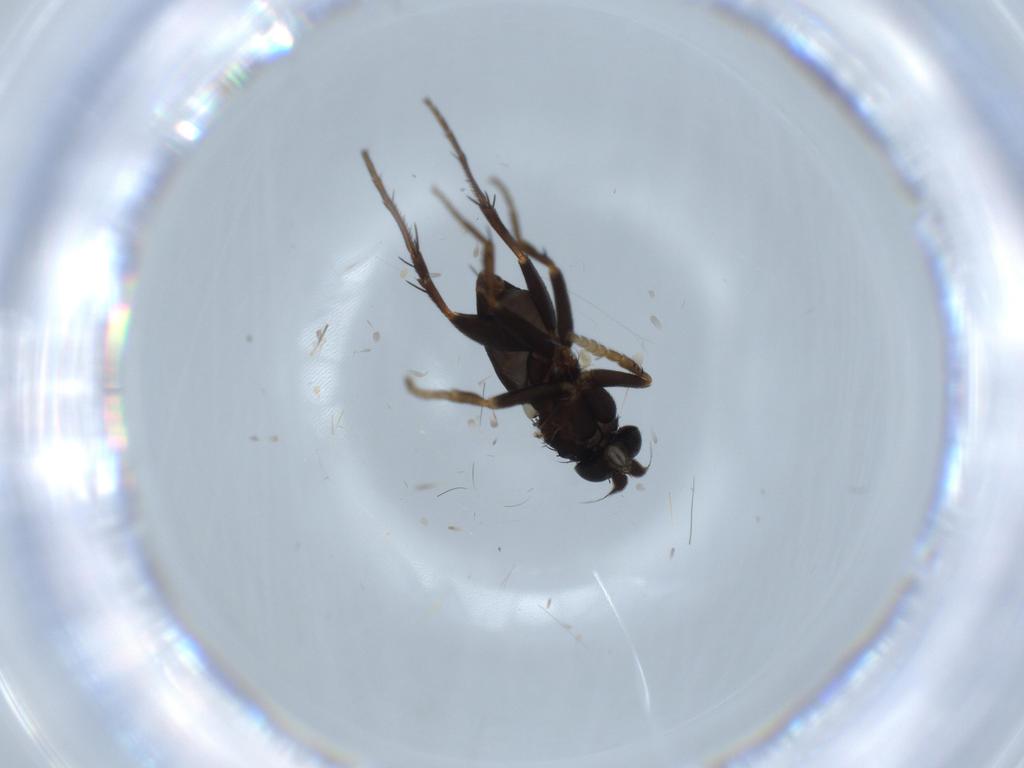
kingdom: Animalia
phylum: Arthropoda
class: Insecta
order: Diptera
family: Phoridae
